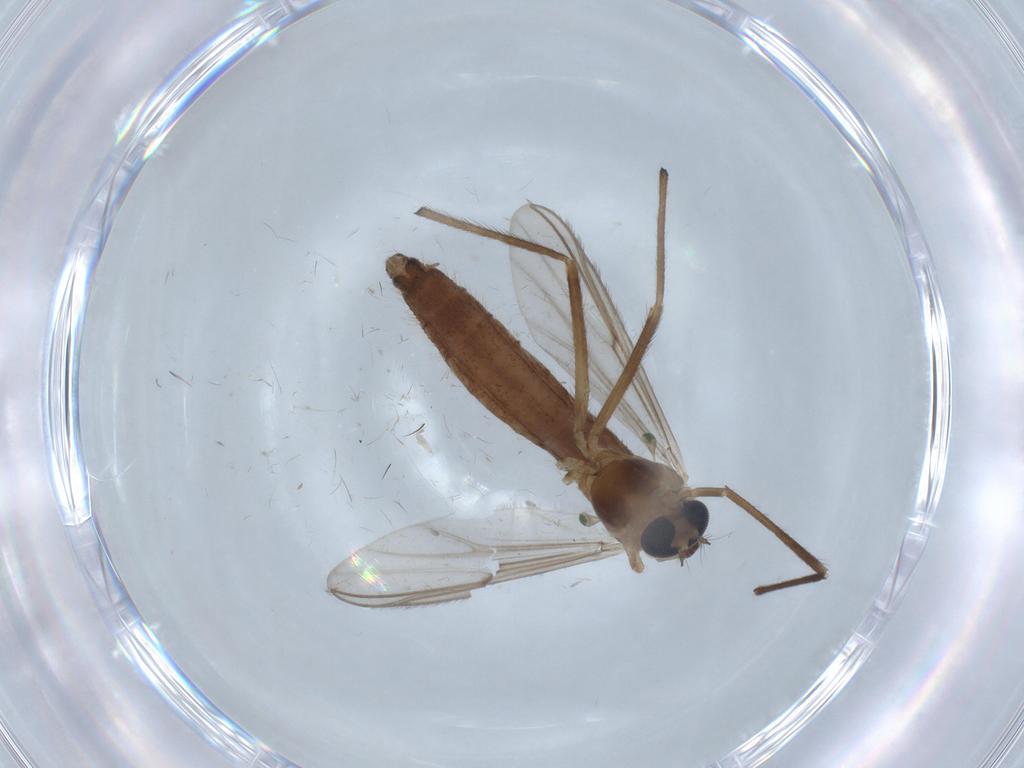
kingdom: Animalia
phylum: Arthropoda
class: Insecta
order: Diptera
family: Chironomidae
